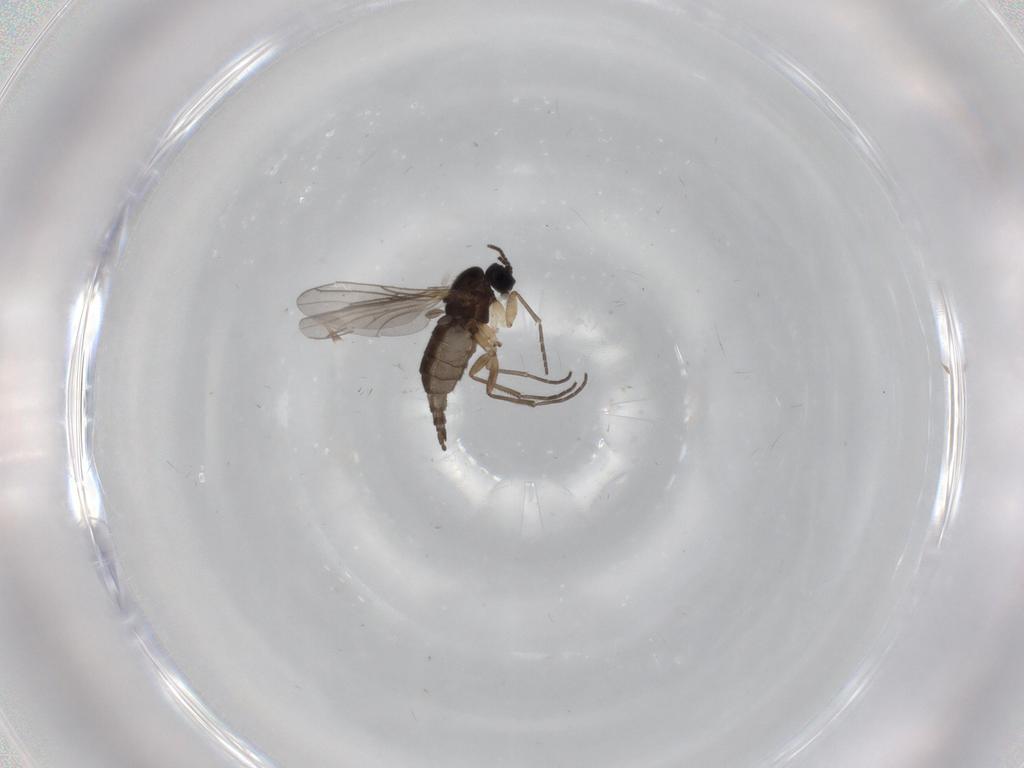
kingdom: Animalia
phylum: Arthropoda
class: Insecta
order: Diptera
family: Sciaridae
